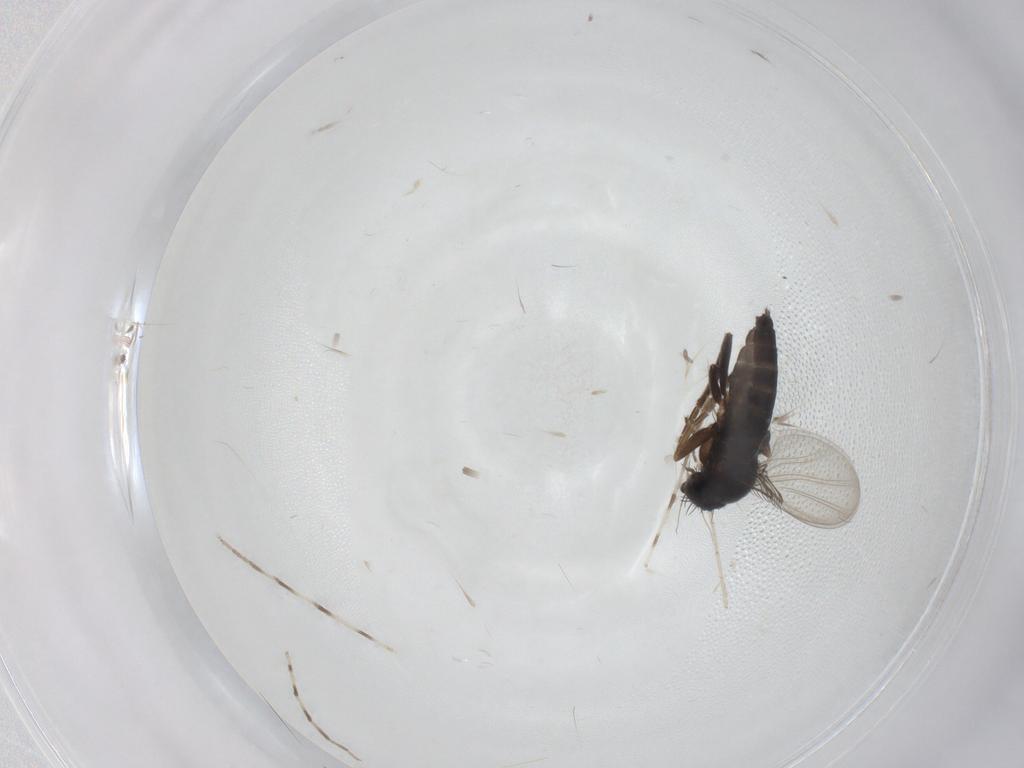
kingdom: Animalia
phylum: Arthropoda
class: Insecta
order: Diptera
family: Phoridae
